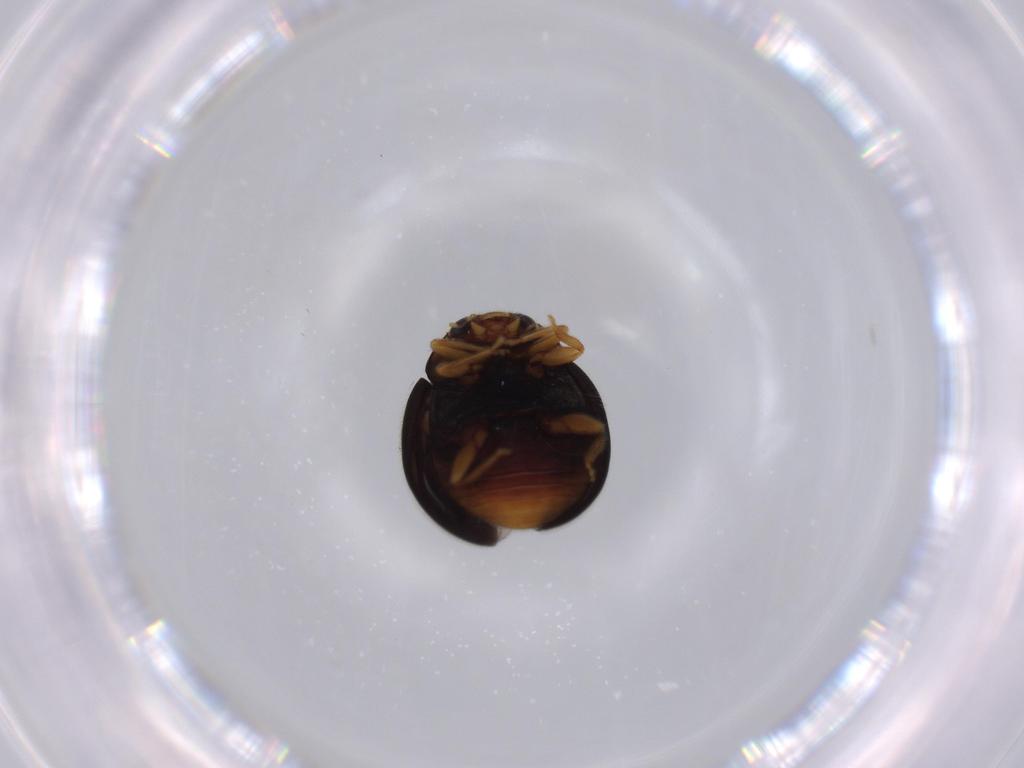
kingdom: Animalia
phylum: Arthropoda
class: Insecta
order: Coleoptera
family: Coccinellidae
